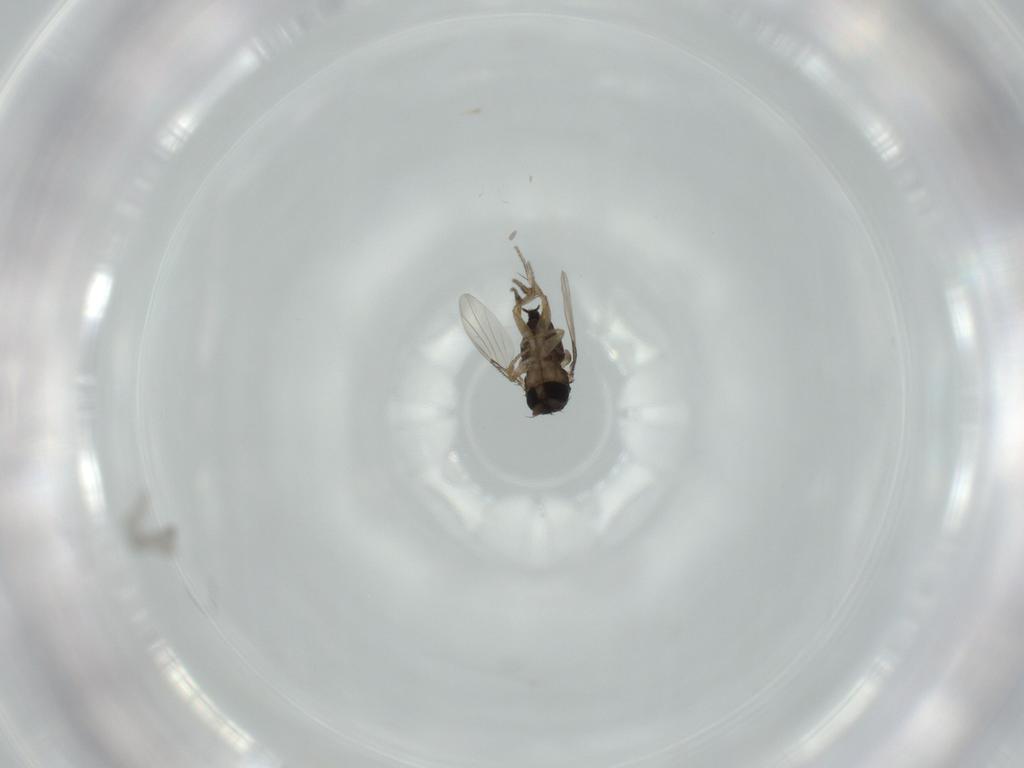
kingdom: Animalia
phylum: Arthropoda
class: Insecta
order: Diptera
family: Phoridae
